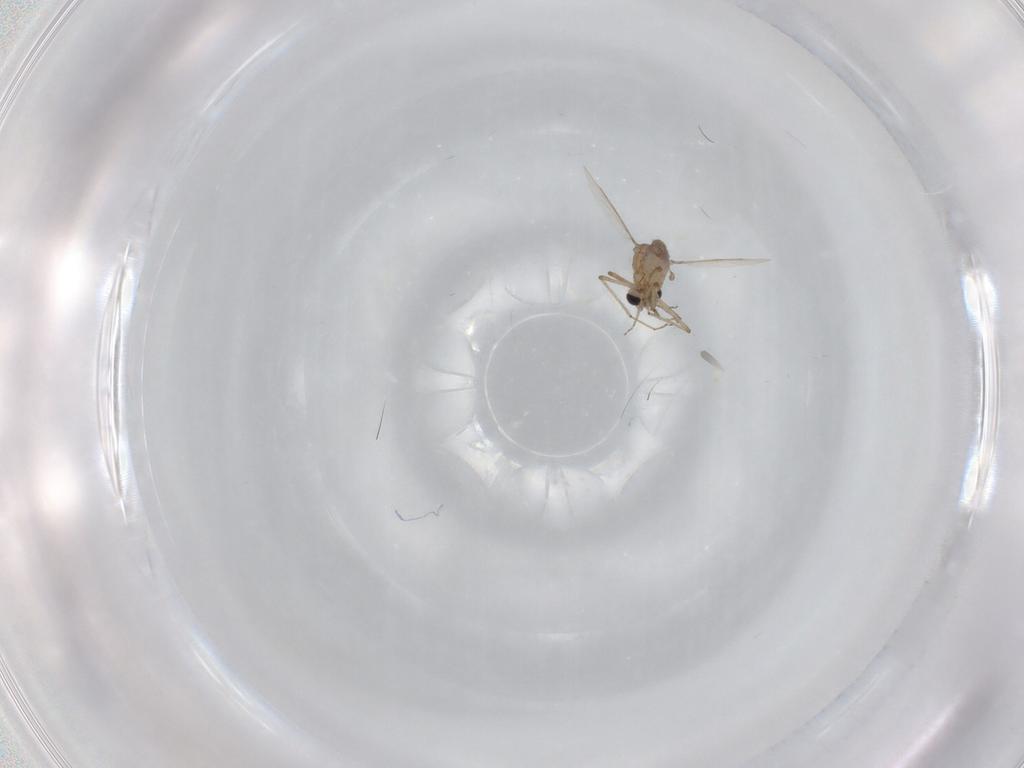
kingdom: Animalia
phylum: Arthropoda
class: Insecta
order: Diptera
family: Ceratopogonidae
